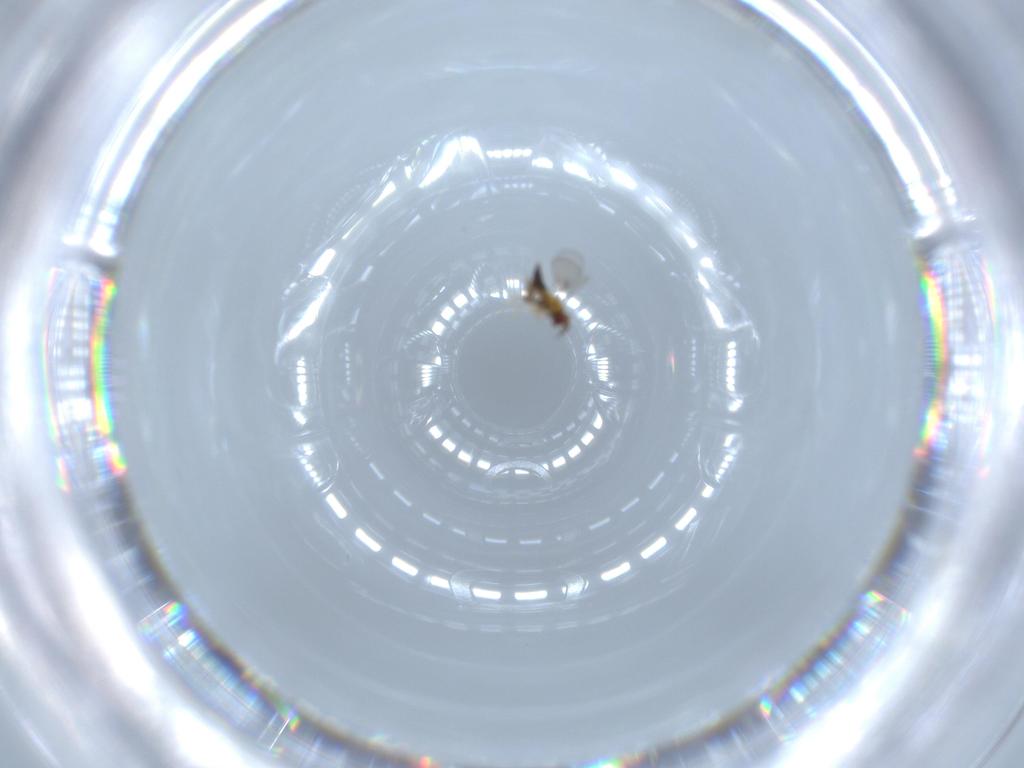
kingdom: Animalia
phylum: Arthropoda
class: Insecta
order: Hymenoptera
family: Trichogrammatidae
